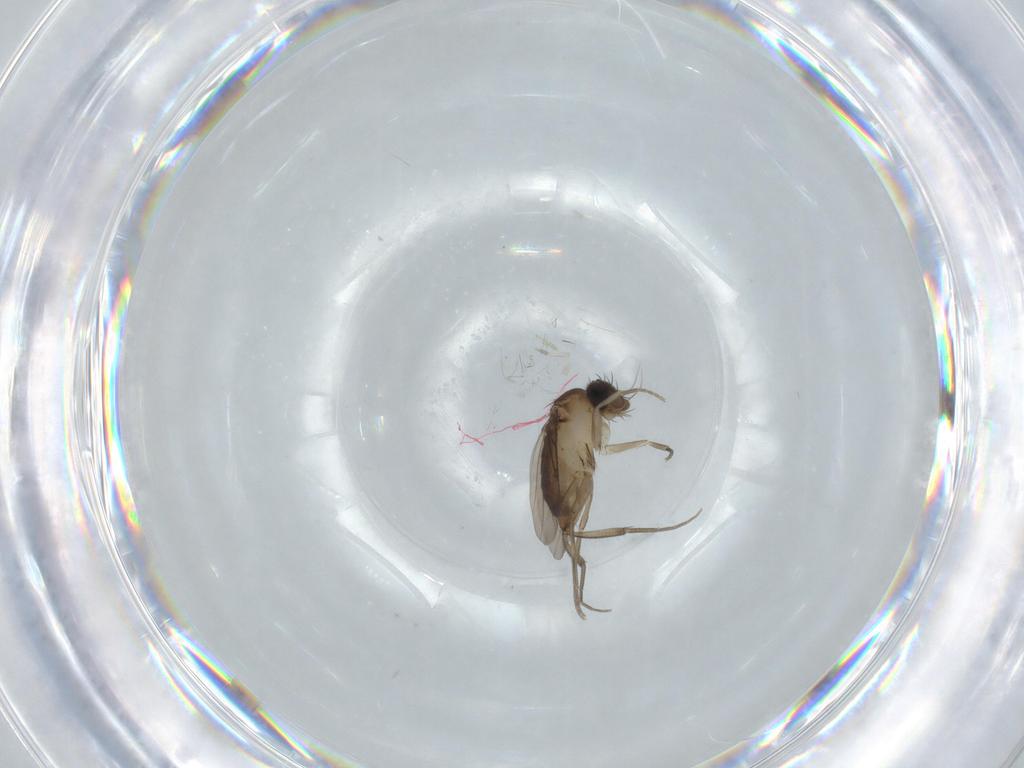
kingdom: Animalia
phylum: Arthropoda
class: Insecta
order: Diptera
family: Phoridae
